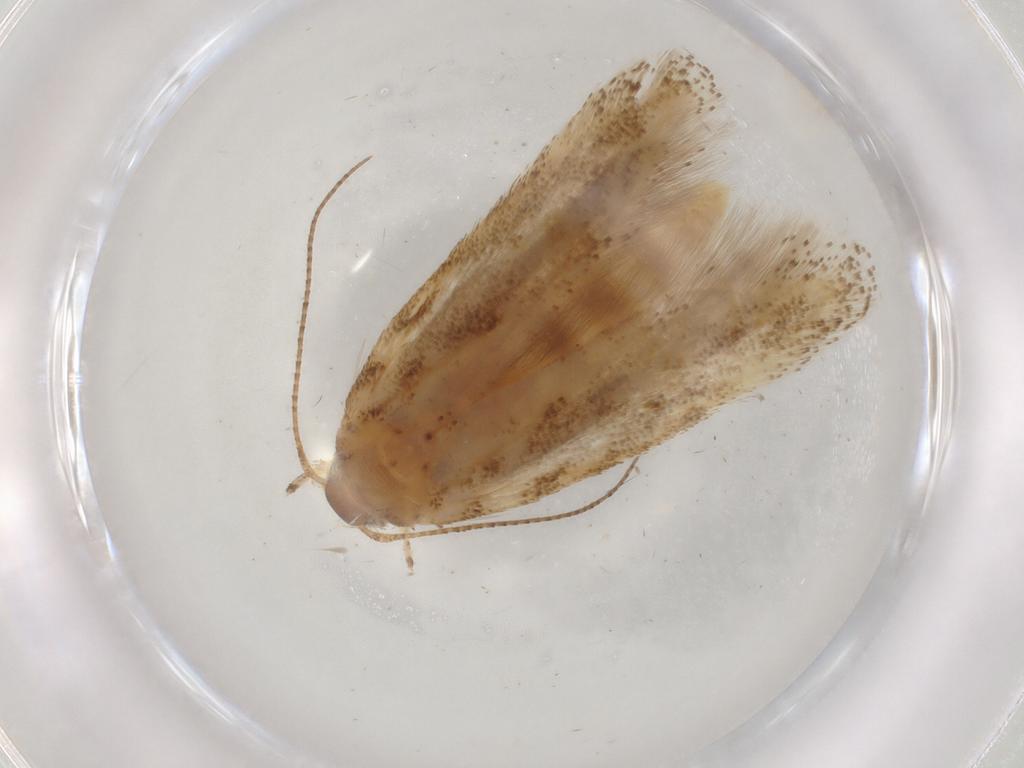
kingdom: Animalia
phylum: Arthropoda
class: Insecta
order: Lepidoptera
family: Gelechiidae
